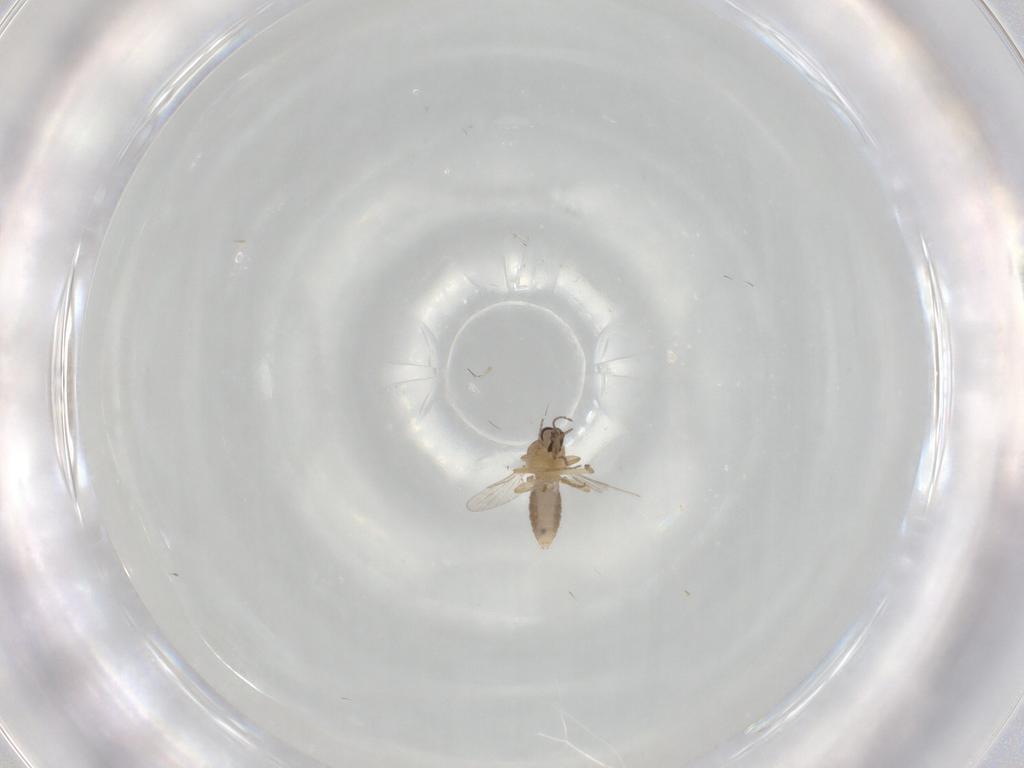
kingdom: Animalia
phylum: Arthropoda
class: Insecta
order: Diptera
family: Ceratopogonidae
